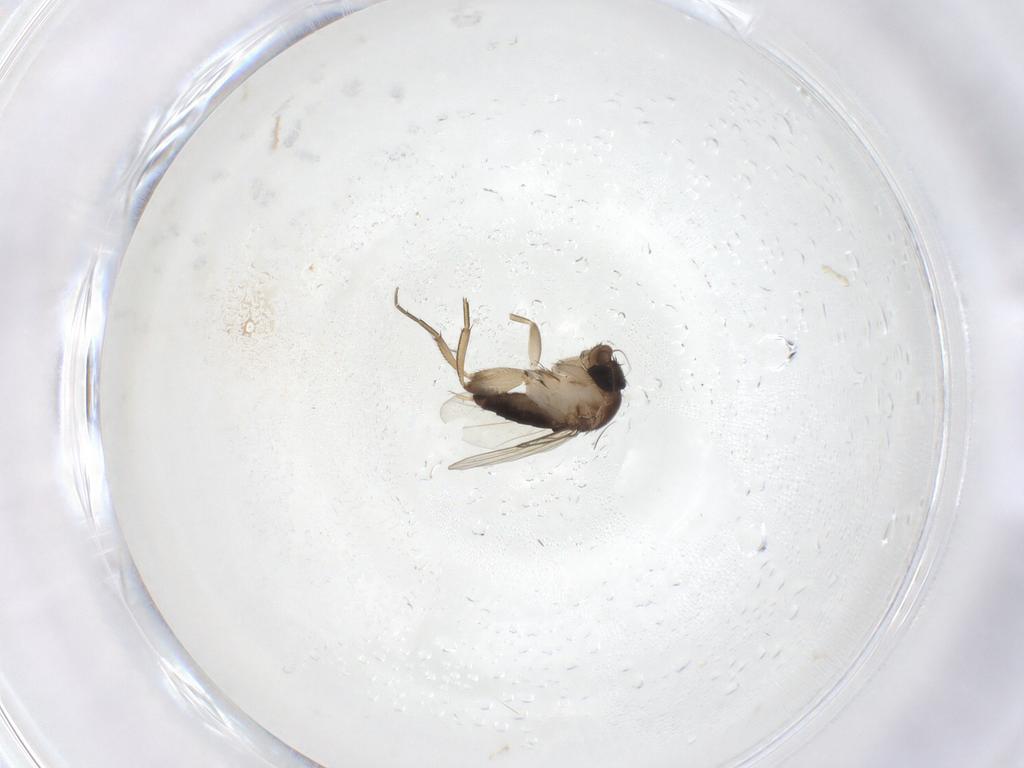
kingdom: Animalia
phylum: Arthropoda
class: Insecta
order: Diptera
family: Phoridae
